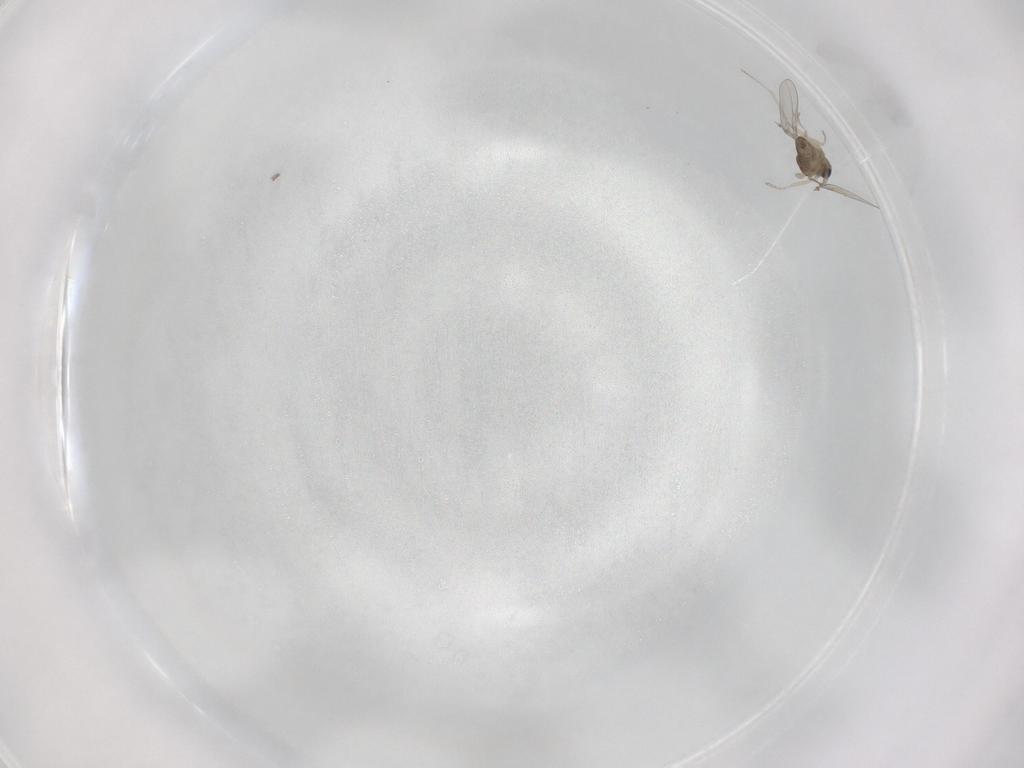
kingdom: Animalia
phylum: Arthropoda
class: Insecta
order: Diptera
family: Cecidomyiidae
